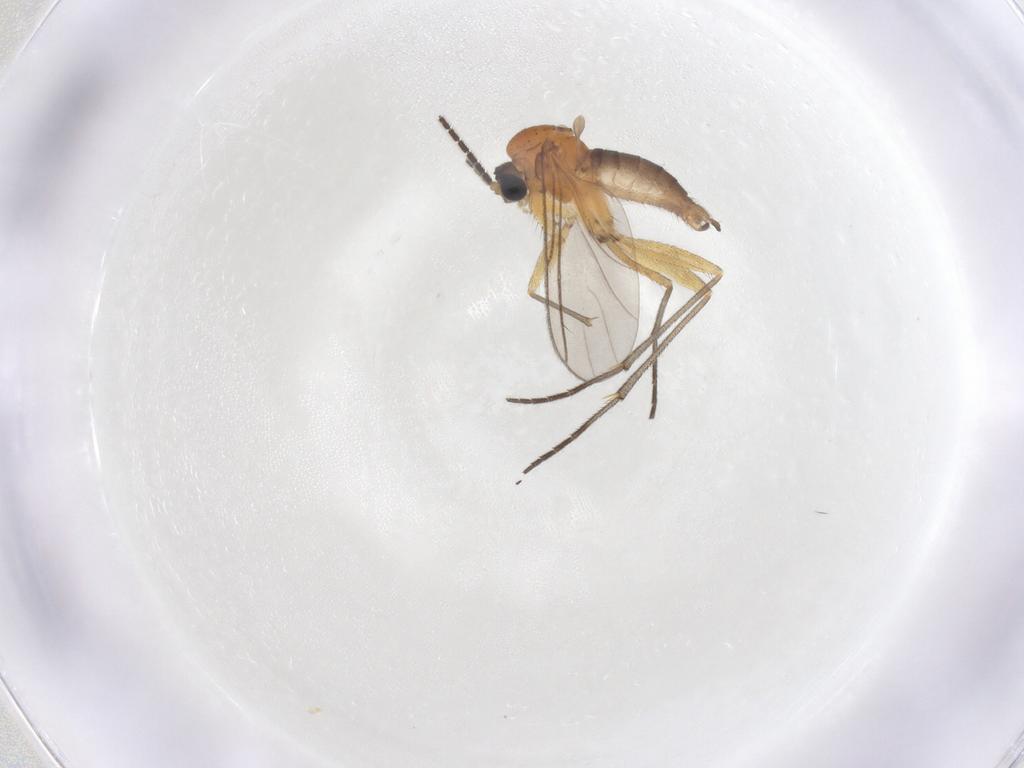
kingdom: Animalia
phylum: Arthropoda
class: Insecta
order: Diptera
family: Sciaridae
